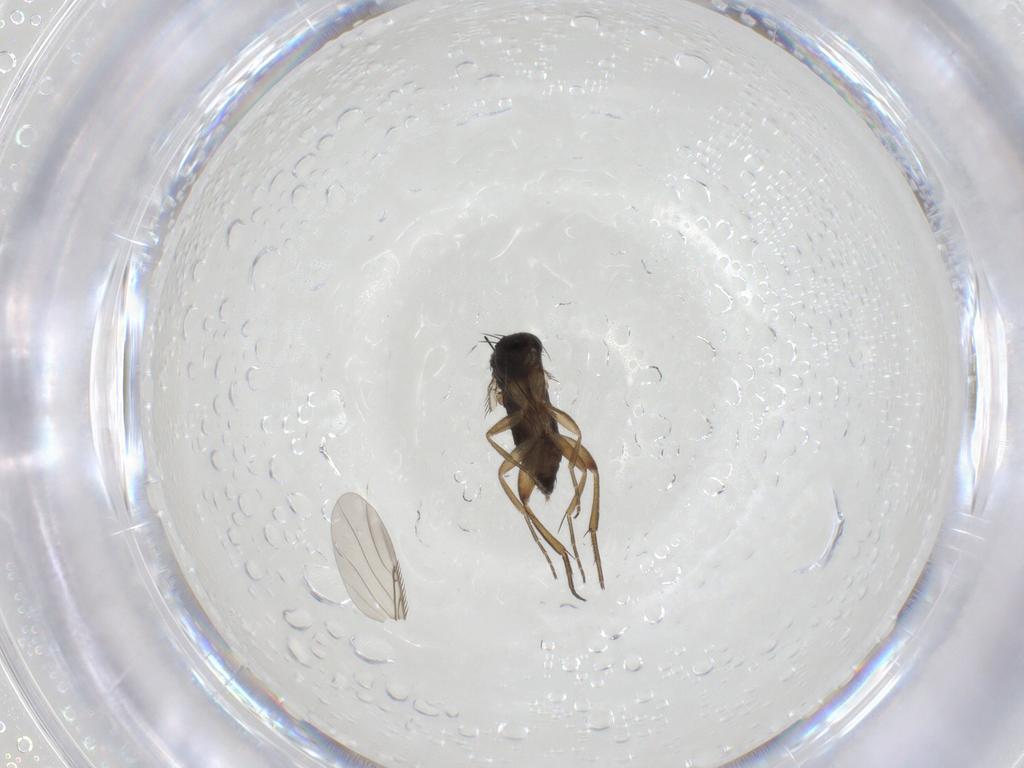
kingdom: Animalia
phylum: Arthropoda
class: Insecta
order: Diptera
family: Phoridae
